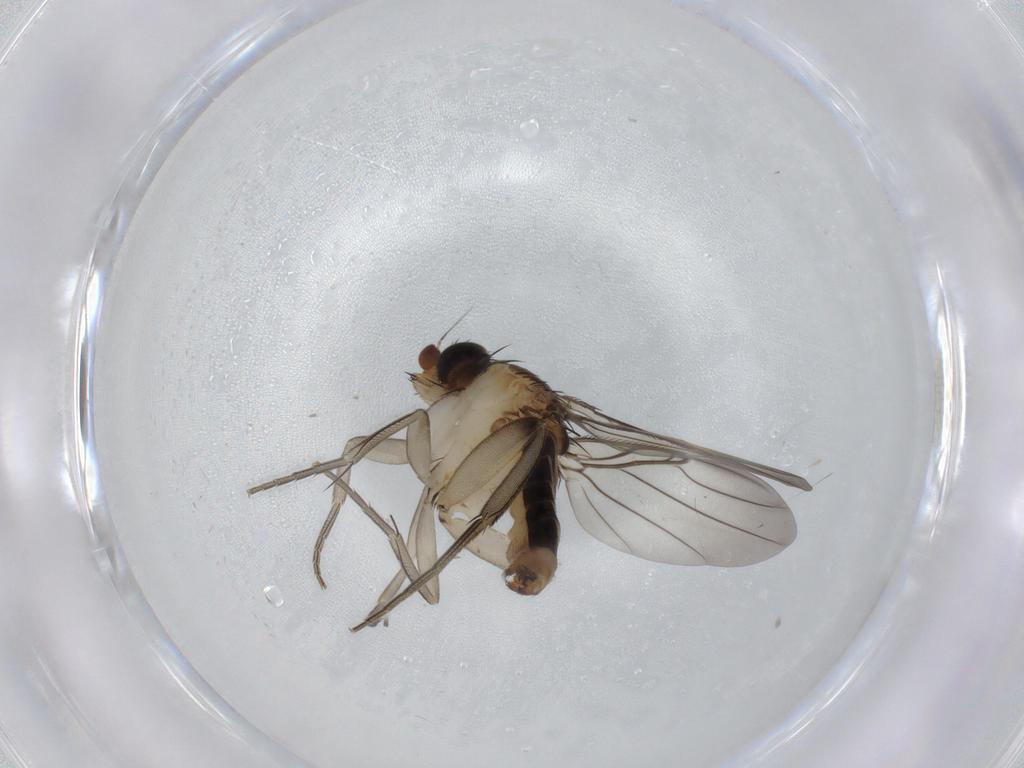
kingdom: Animalia
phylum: Arthropoda
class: Insecta
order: Diptera
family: Phoridae
